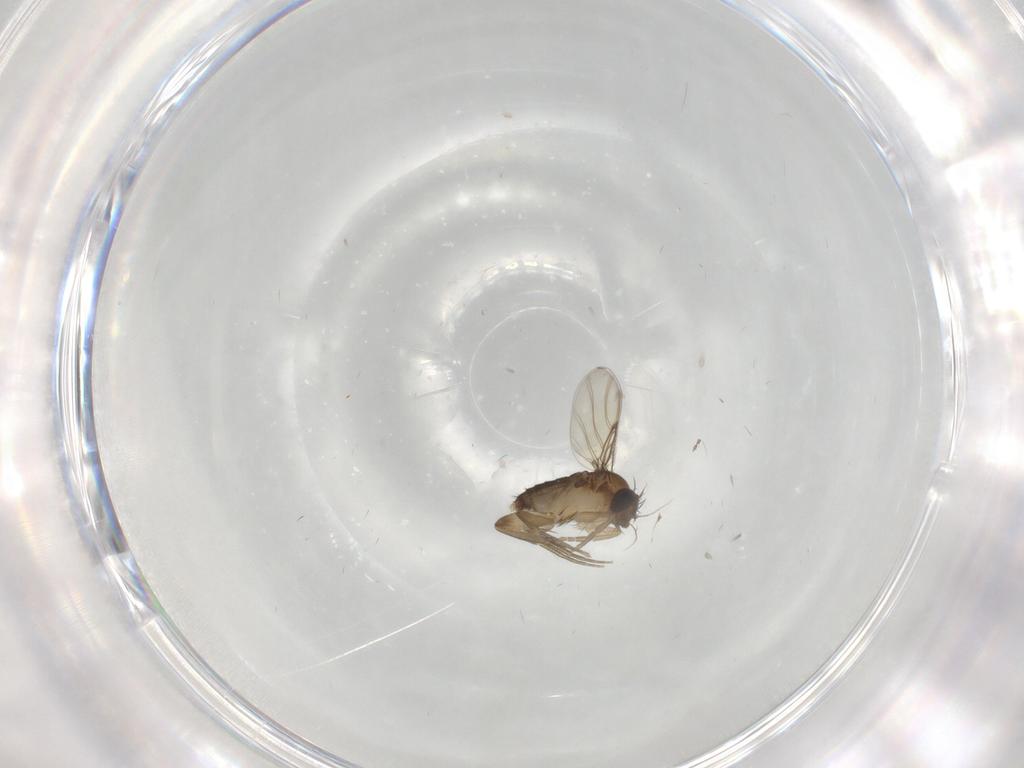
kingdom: Animalia
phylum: Arthropoda
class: Insecta
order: Diptera
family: Phoridae
